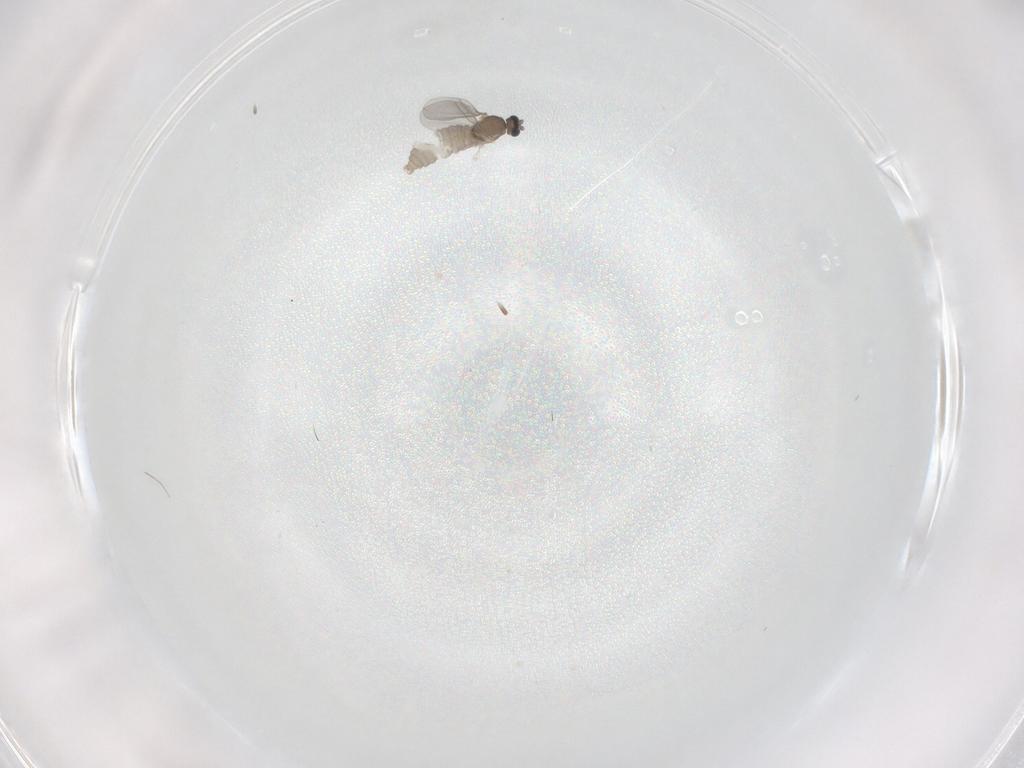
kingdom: Animalia
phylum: Arthropoda
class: Insecta
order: Diptera
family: Cecidomyiidae
